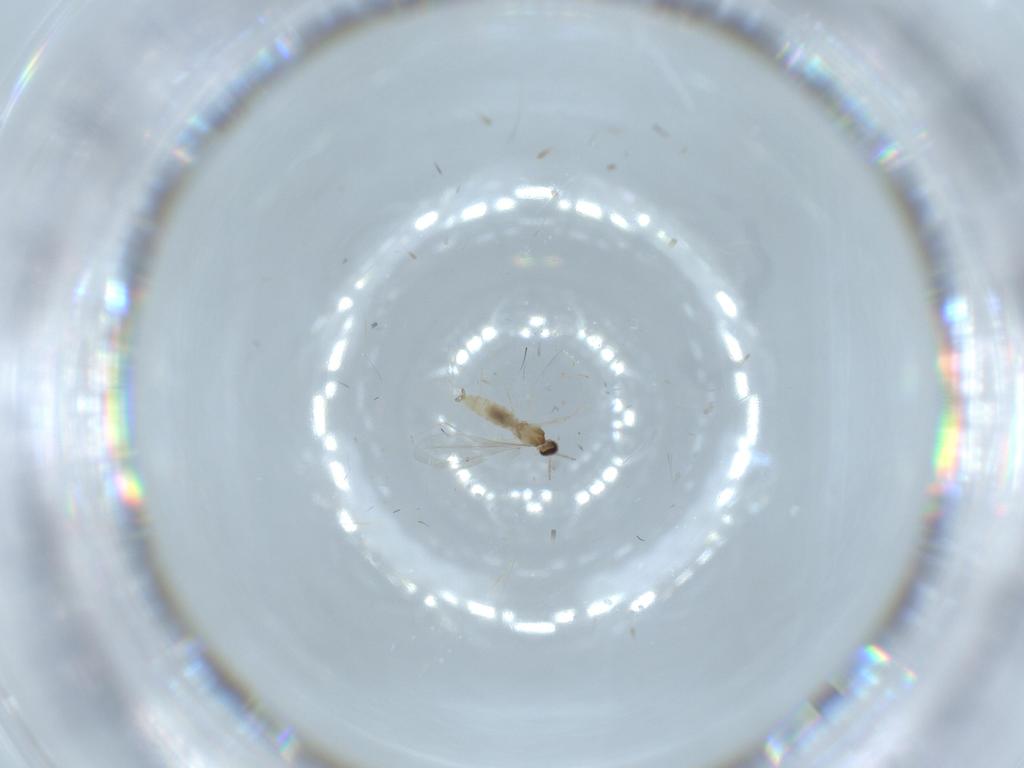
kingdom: Animalia
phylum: Arthropoda
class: Insecta
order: Diptera
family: Cecidomyiidae
